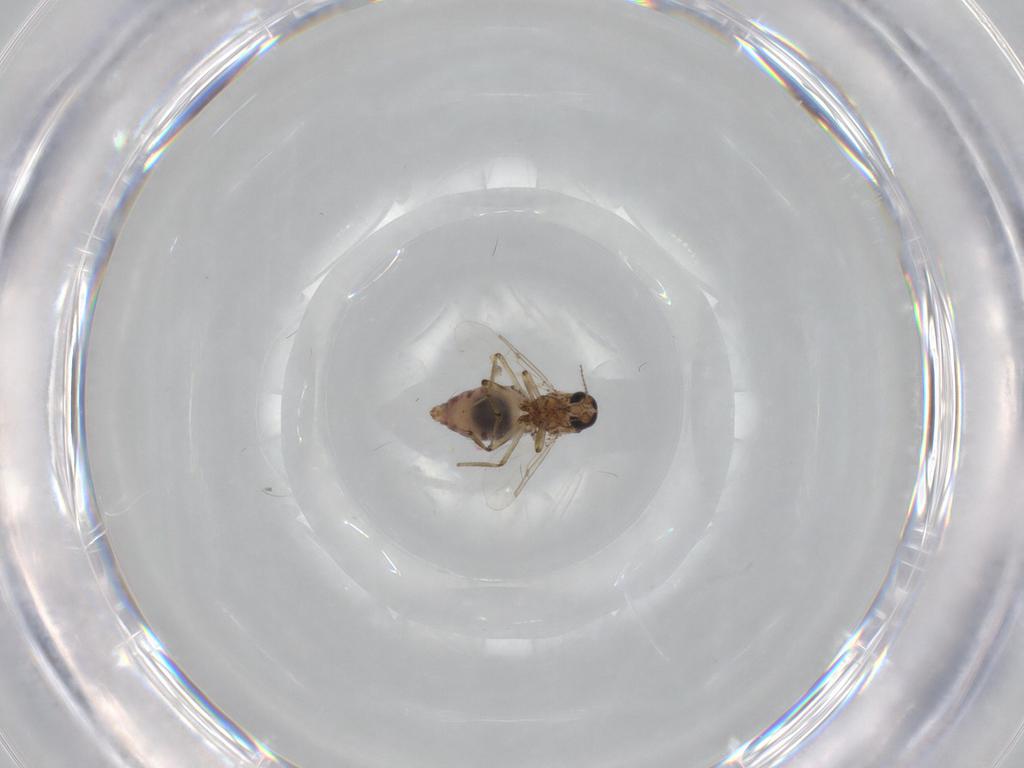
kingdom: Animalia
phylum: Arthropoda
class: Insecta
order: Diptera
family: Ceratopogonidae
